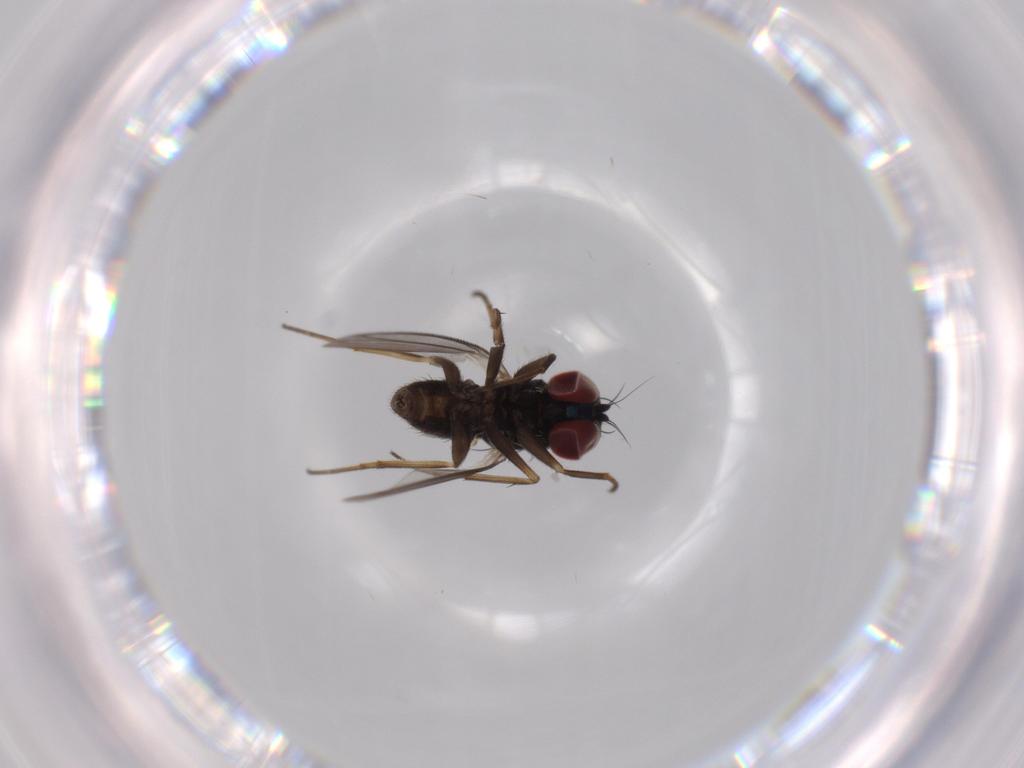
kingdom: Animalia
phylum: Arthropoda
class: Insecta
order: Diptera
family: Dolichopodidae
